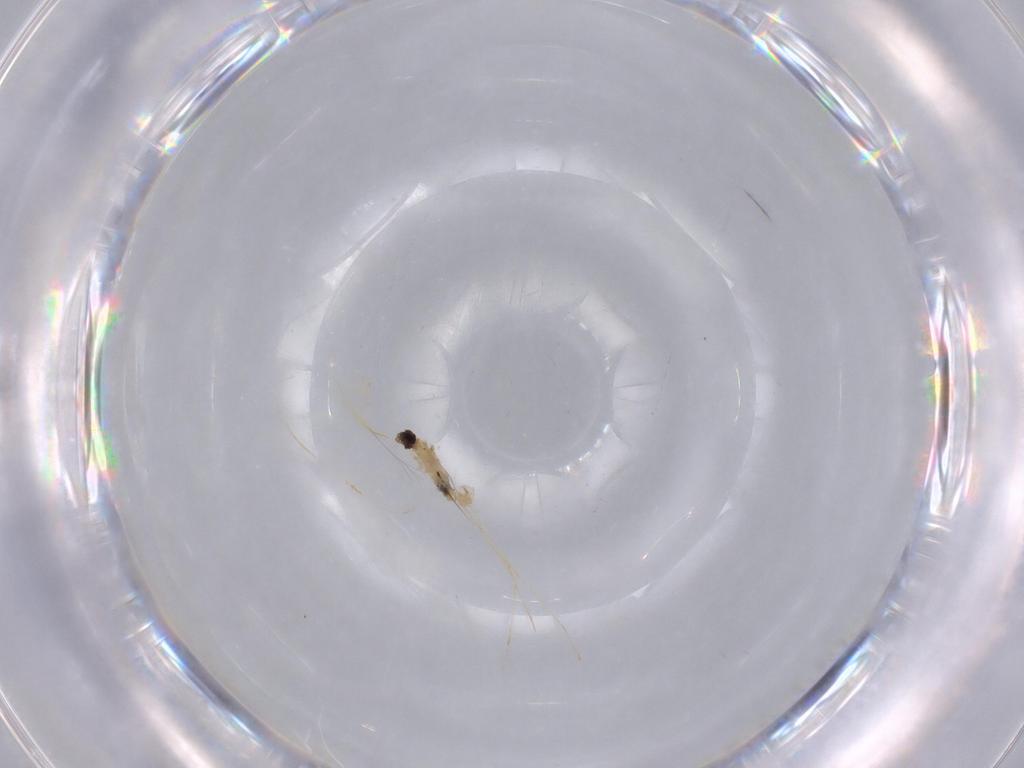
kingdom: Animalia
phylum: Arthropoda
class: Insecta
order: Diptera
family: Cecidomyiidae
